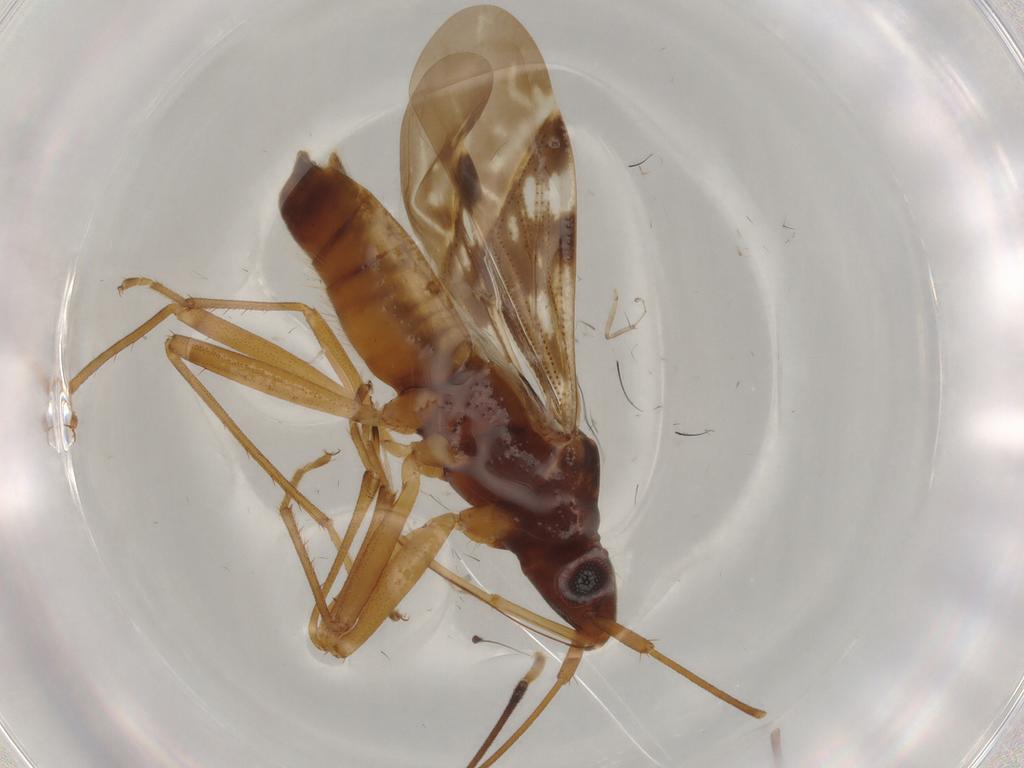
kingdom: Animalia
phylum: Arthropoda
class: Insecta
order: Hemiptera
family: Rhyparochromidae
